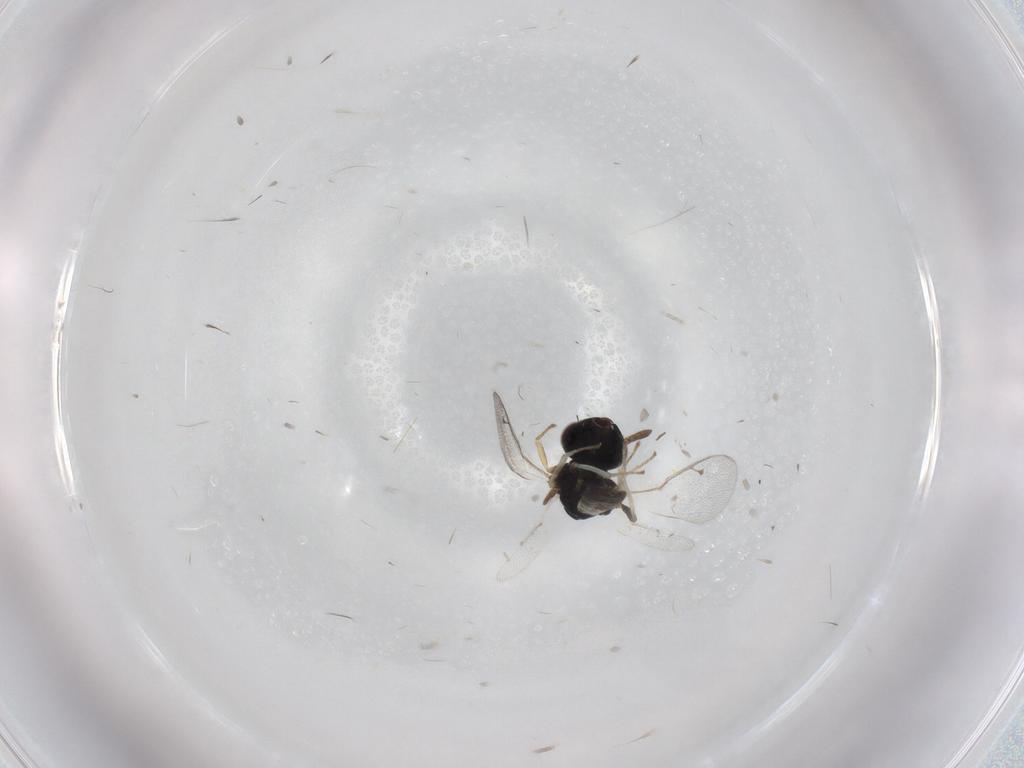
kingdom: Animalia
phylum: Arthropoda
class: Insecta
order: Hymenoptera
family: Pteromalidae
